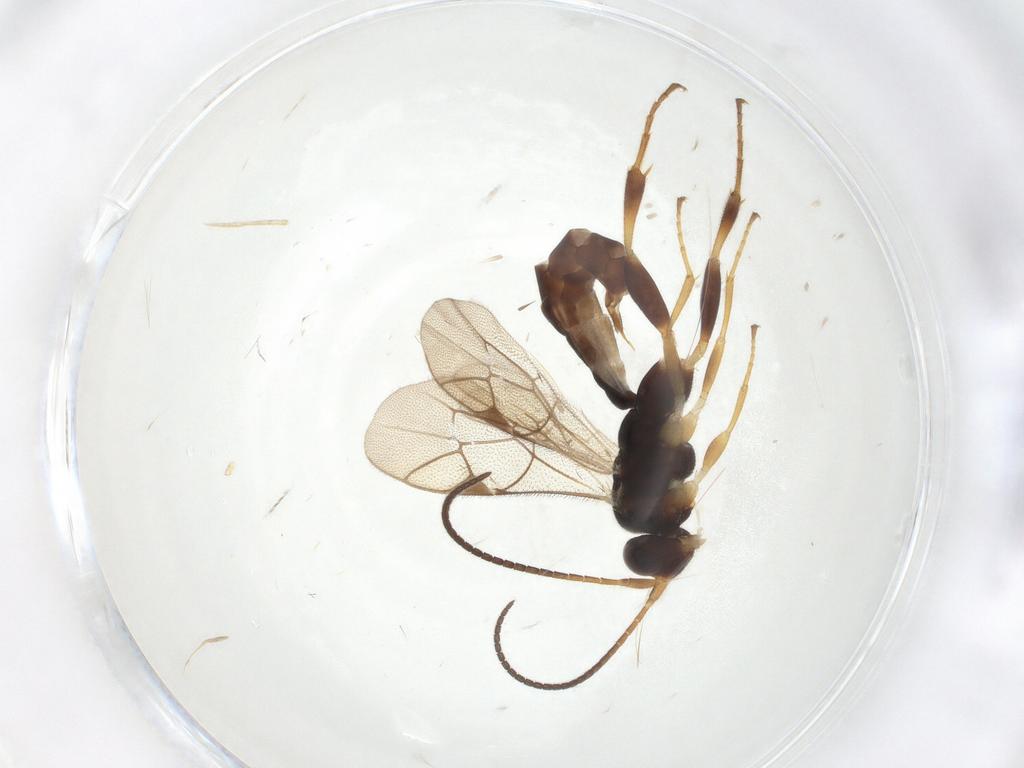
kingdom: Animalia
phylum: Arthropoda
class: Insecta
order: Hymenoptera
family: Ichneumonidae
